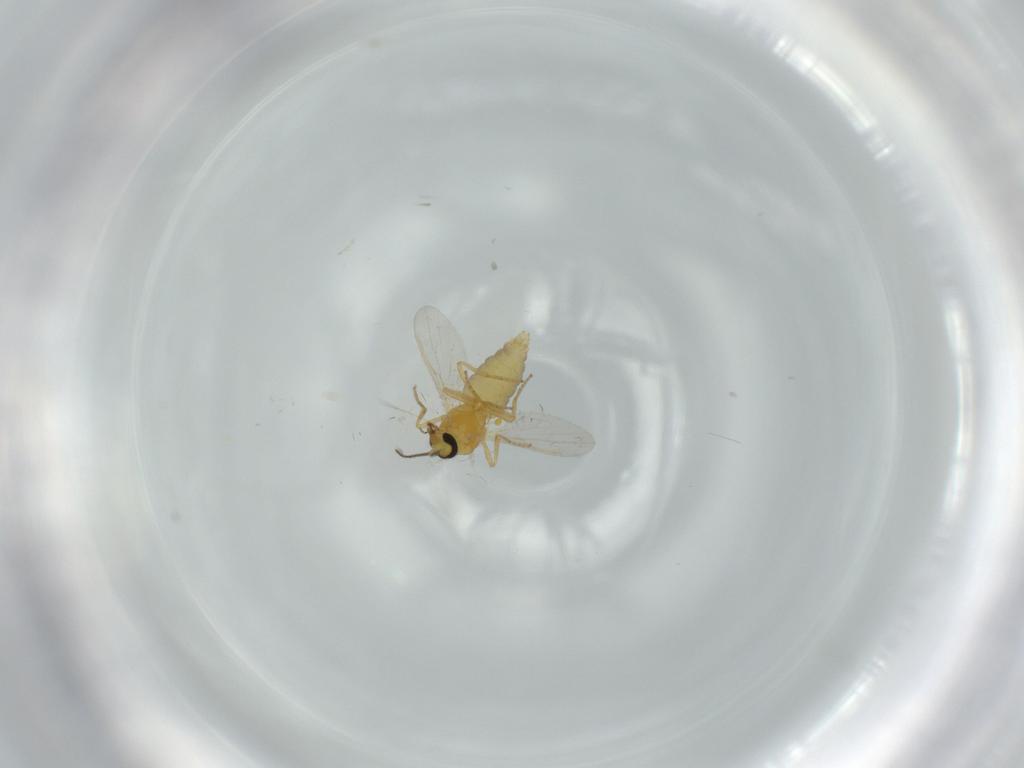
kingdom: Animalia
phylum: Arthropoda
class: Insecta
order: Diptera
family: Ceratopogonidae
